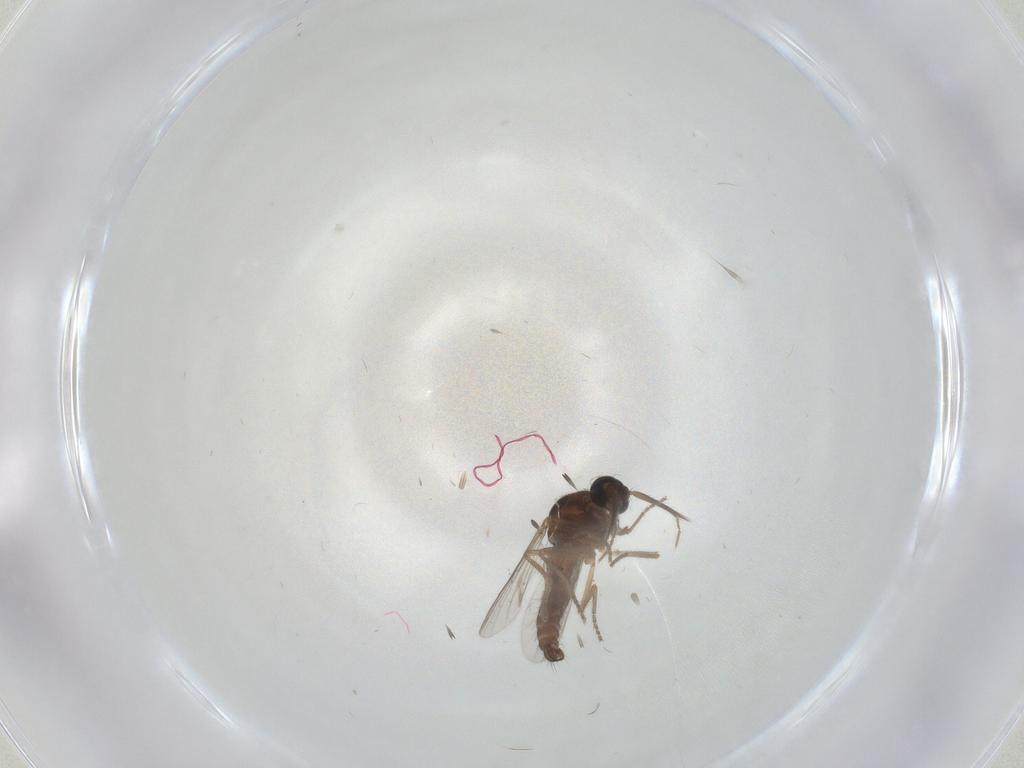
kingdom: Animalia
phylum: Arthropoda
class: Insecta
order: Diptera
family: Ceratopogonidae
